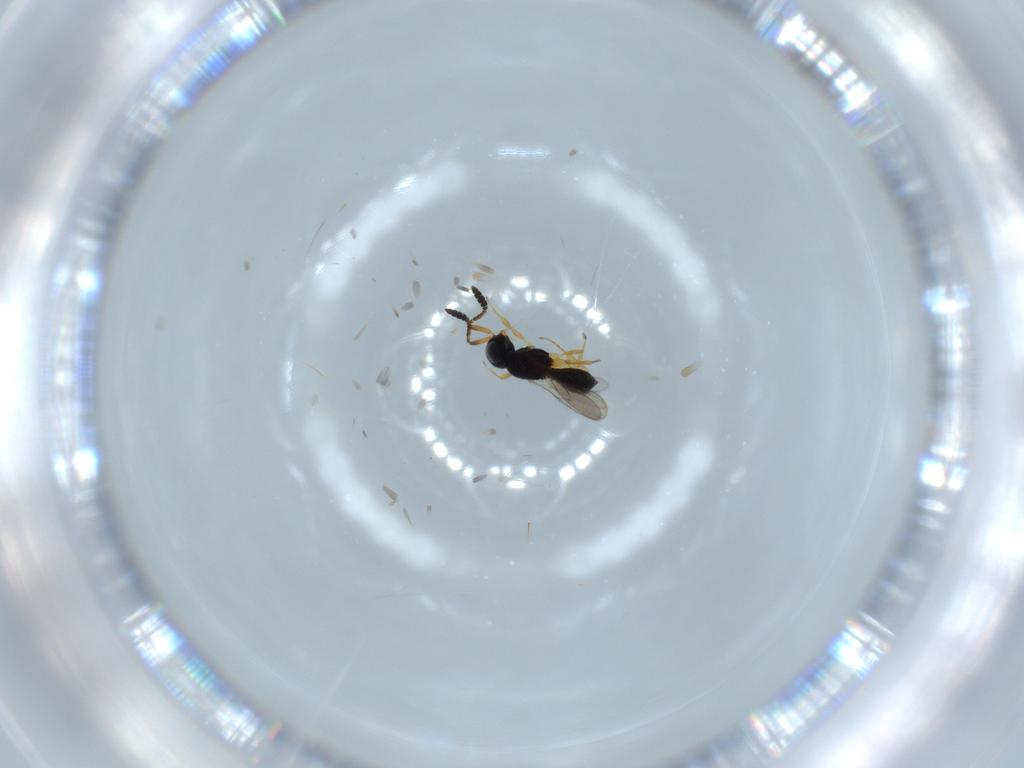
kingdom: Animalia
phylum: Arthropoda
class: Insecta
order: Hymenoptera
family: Scelionidae
